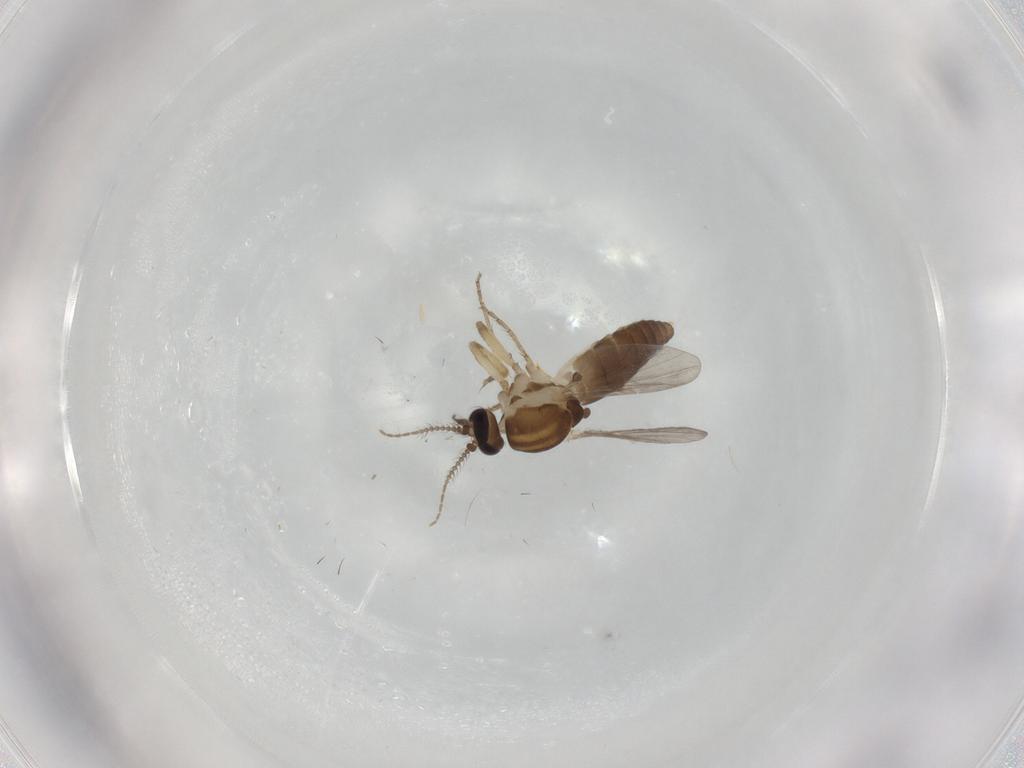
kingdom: Animalia
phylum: Arthropoda
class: Insecta
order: Diptera
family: Ceratopogonidae
